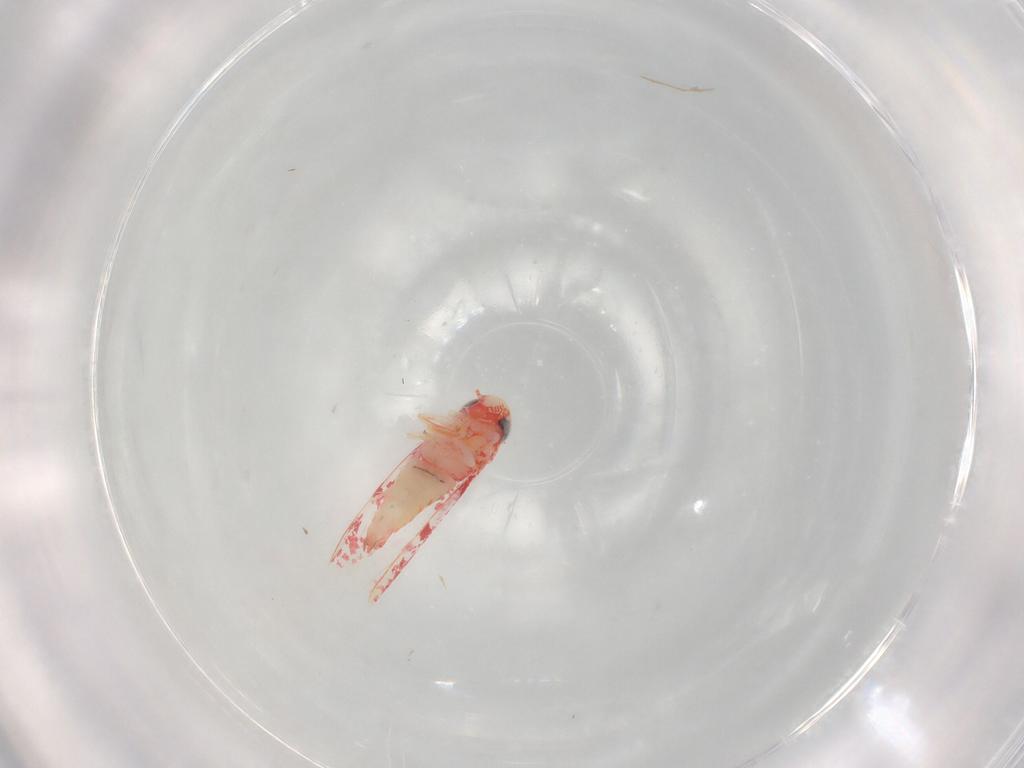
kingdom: Animalia
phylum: Arthropoda
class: Insecta
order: Hemiptera
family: Cicadellidae
